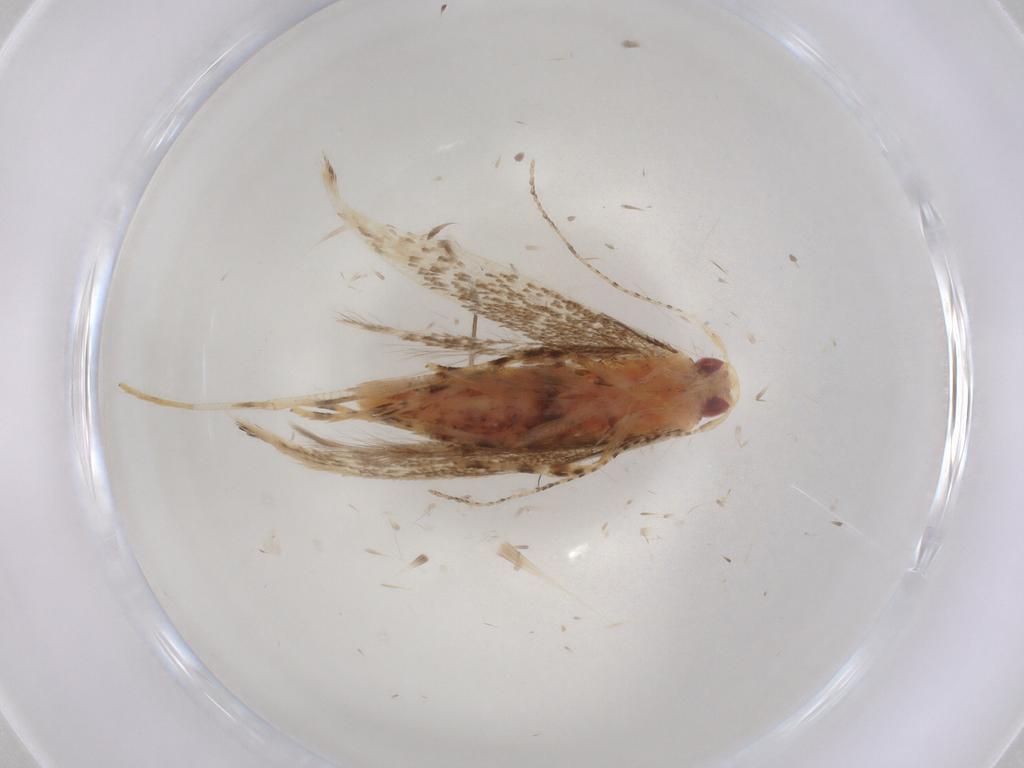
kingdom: Animalia
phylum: Arthropoda
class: Insecta
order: Lepidoptera
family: Cosmopterigidae
